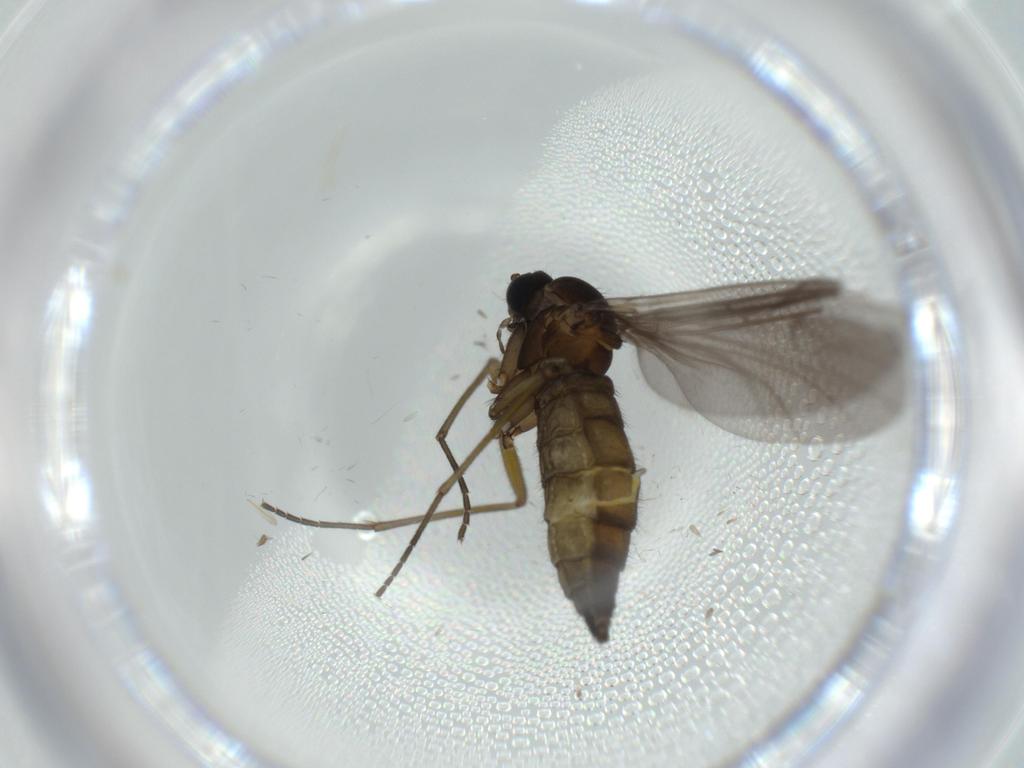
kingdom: Animalia
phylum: Arthropoda
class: Insecta
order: Diptera
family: Sciaridae
